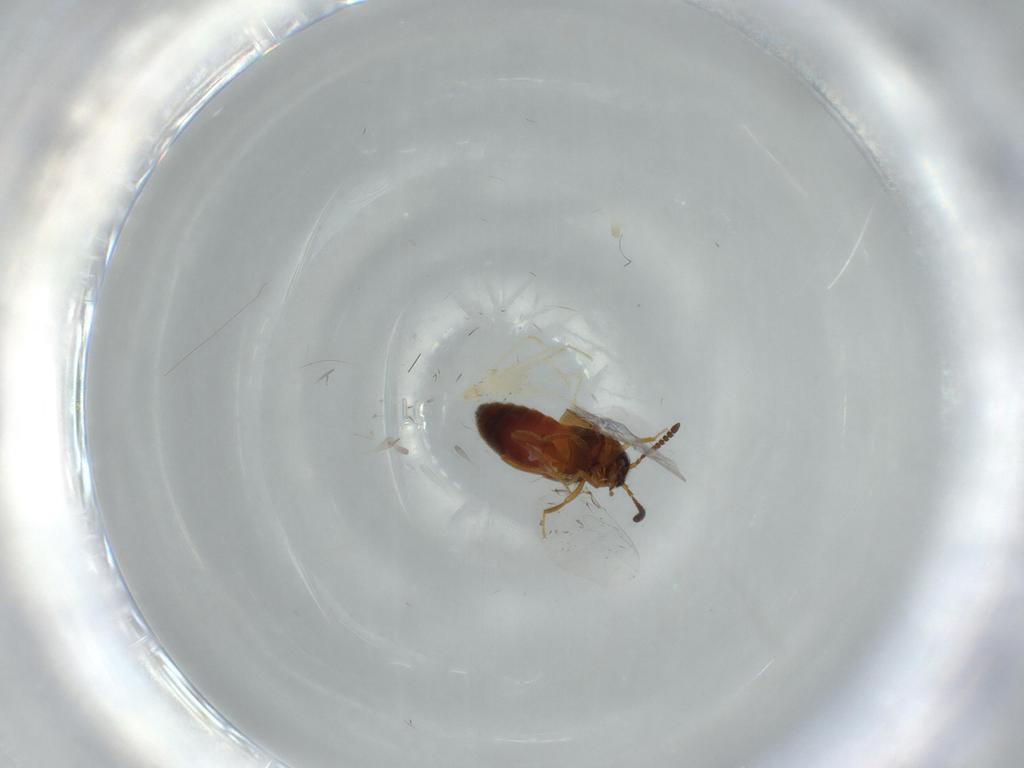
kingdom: Animalia
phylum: Arthropoda
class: Insecta
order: Coleoptera
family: Staphylinidae
